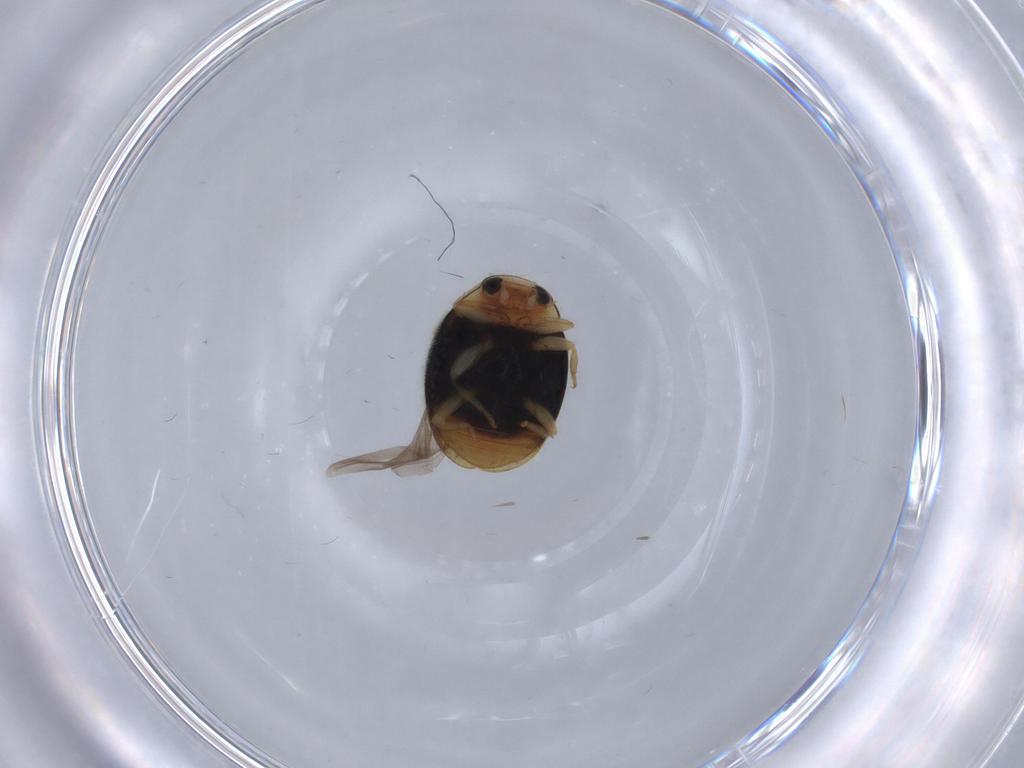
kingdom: Animalia
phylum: Arthropoda
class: Insecta
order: Coleoptera
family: Coccinellidae
